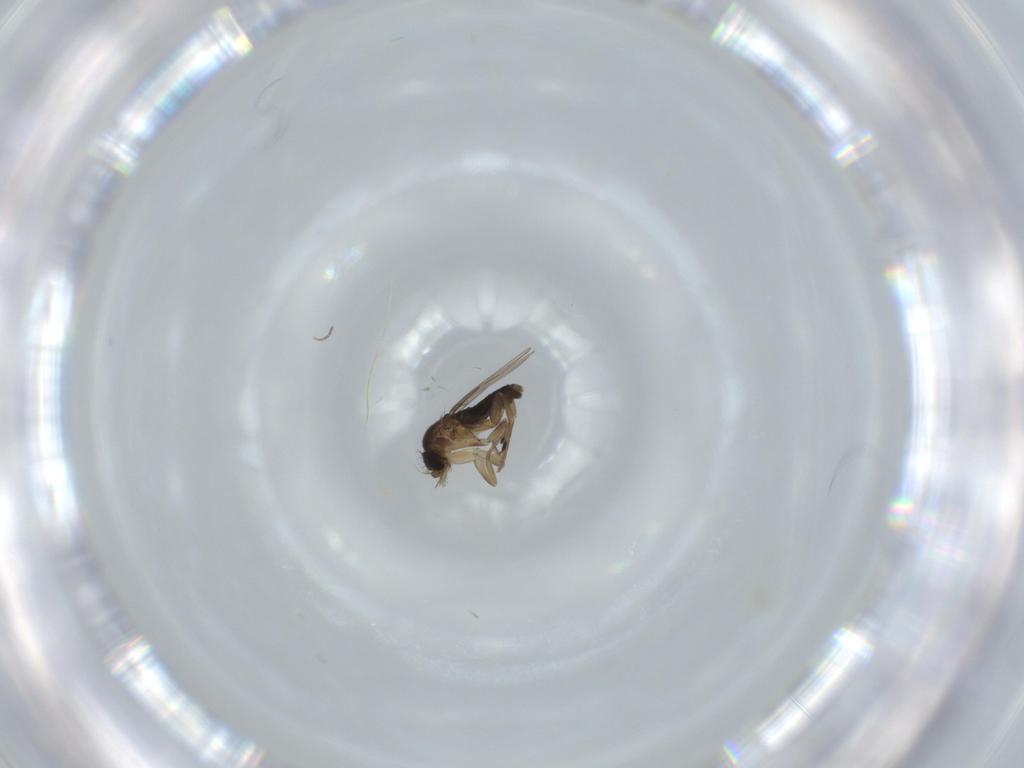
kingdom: Animalia
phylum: Arthropoda
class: Insecta
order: Diptera
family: Phoridae
